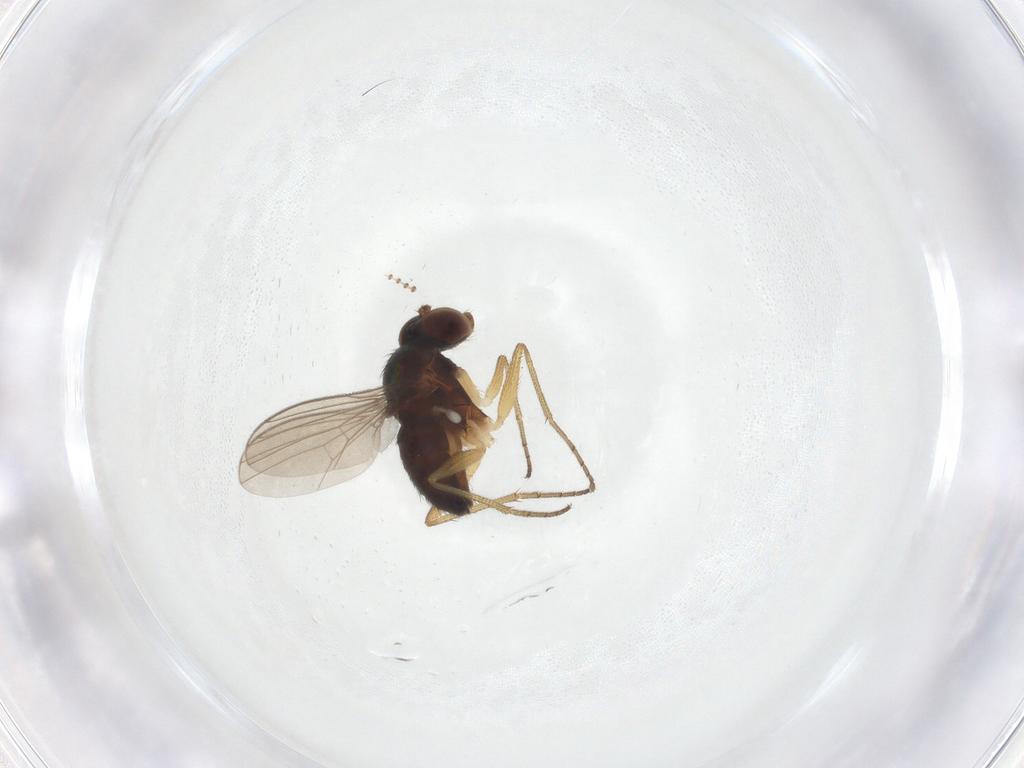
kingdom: Animalia
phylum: Arthropoda
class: Insecta
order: Diptera
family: Dolichopodidae
